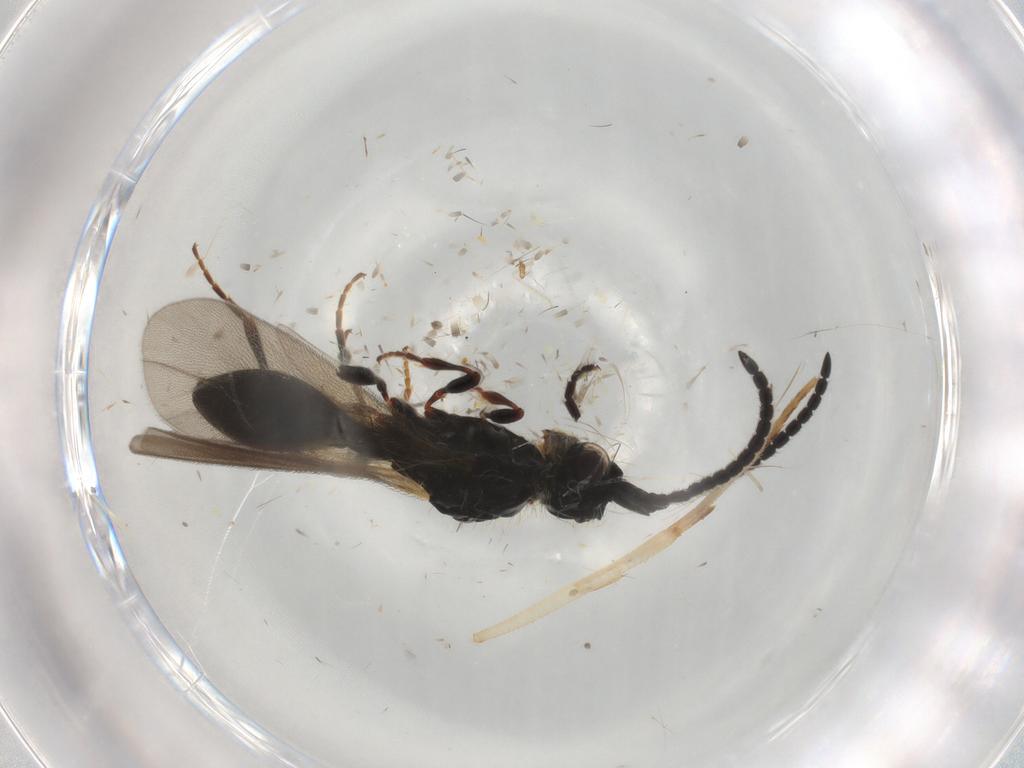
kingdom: Animalia
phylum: Arthropoda
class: Insecta
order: Hymenoptera
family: Diapriidae
